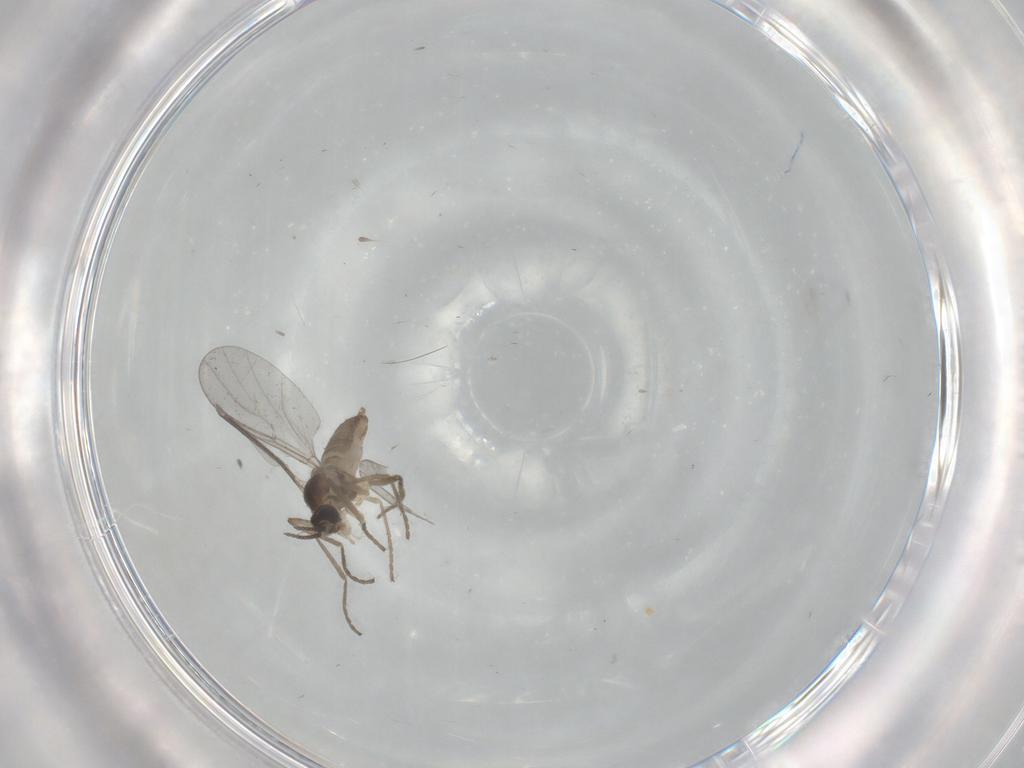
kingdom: Animalia
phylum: Arthropoda
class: Insecta
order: Diptera
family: Cecidomyiidae
